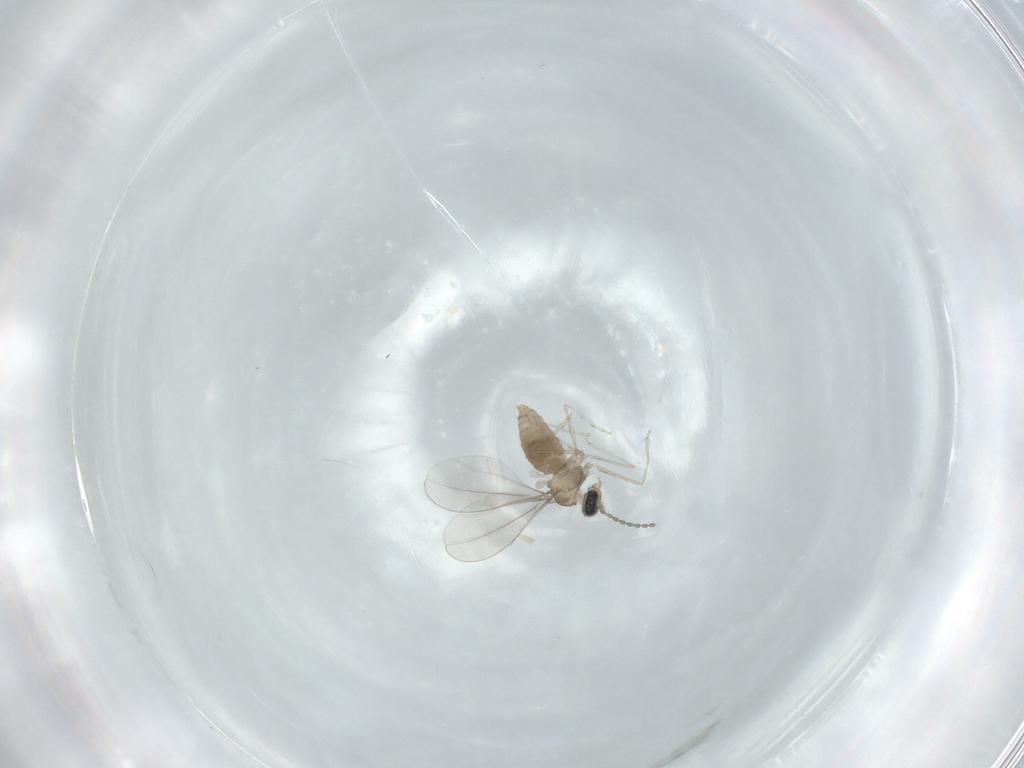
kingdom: Animalia
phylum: Arthropoda
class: Insecta
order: Diptera
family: Cecidomyiidae
